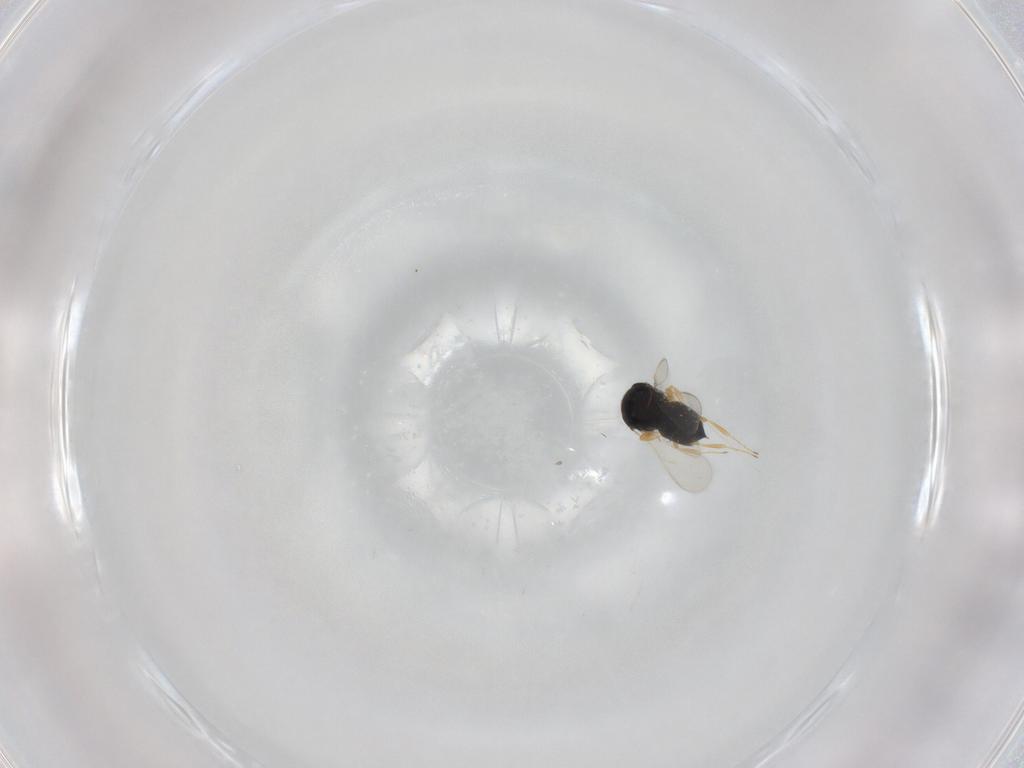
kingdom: Animalia
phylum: Arthropoda
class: Insecta
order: Hymenoptera
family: Scelionidae
